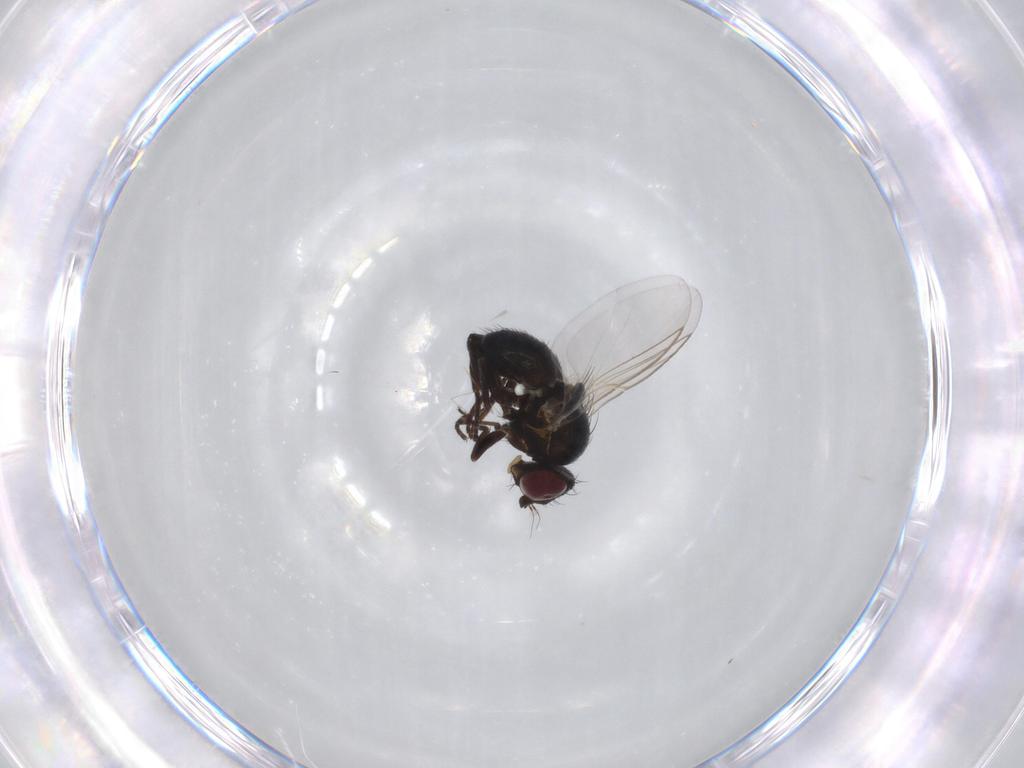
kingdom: Animalia
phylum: Arthropoda
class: Insecta
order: Diptera
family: Agromyzidae
